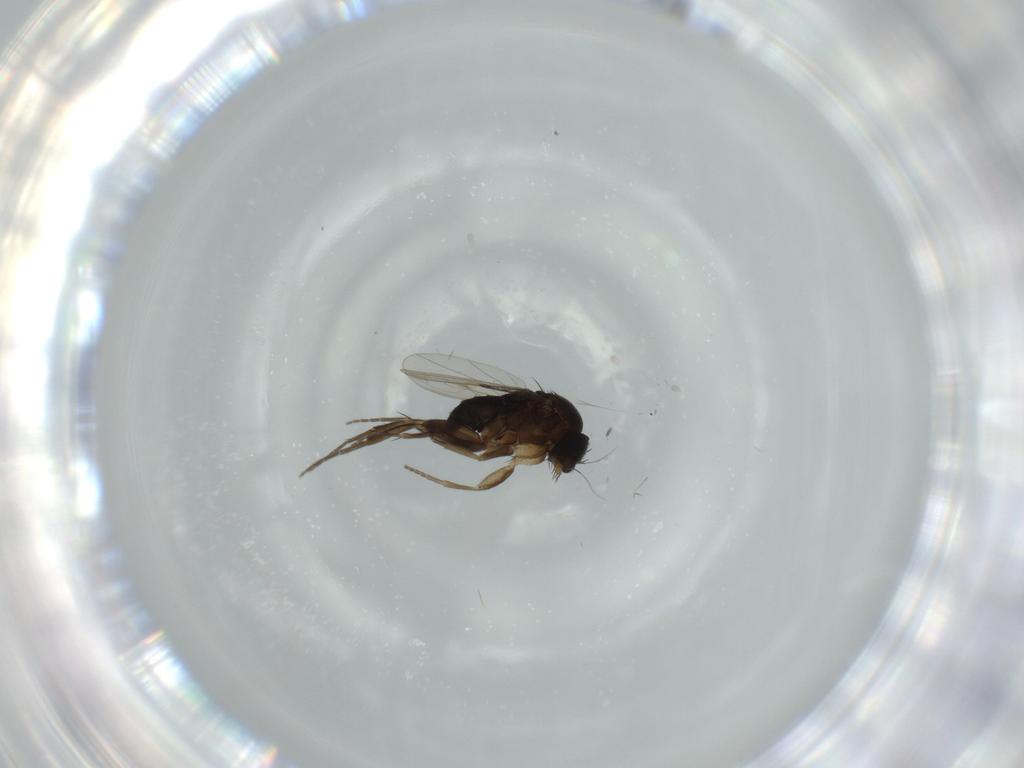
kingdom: Animalia
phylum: Arthropoda
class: Insecta
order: Diptera
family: Phoridae
